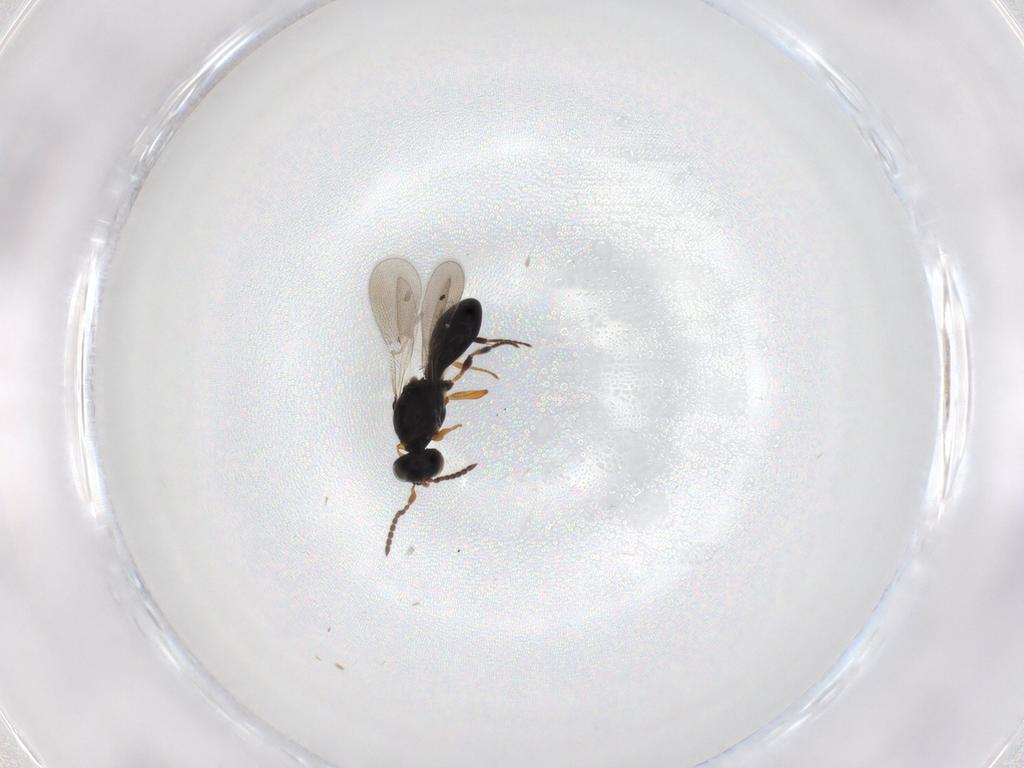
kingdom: Animalia
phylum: Arthropoda
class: Insecta
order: Hymenoptera
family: Platygastridae
